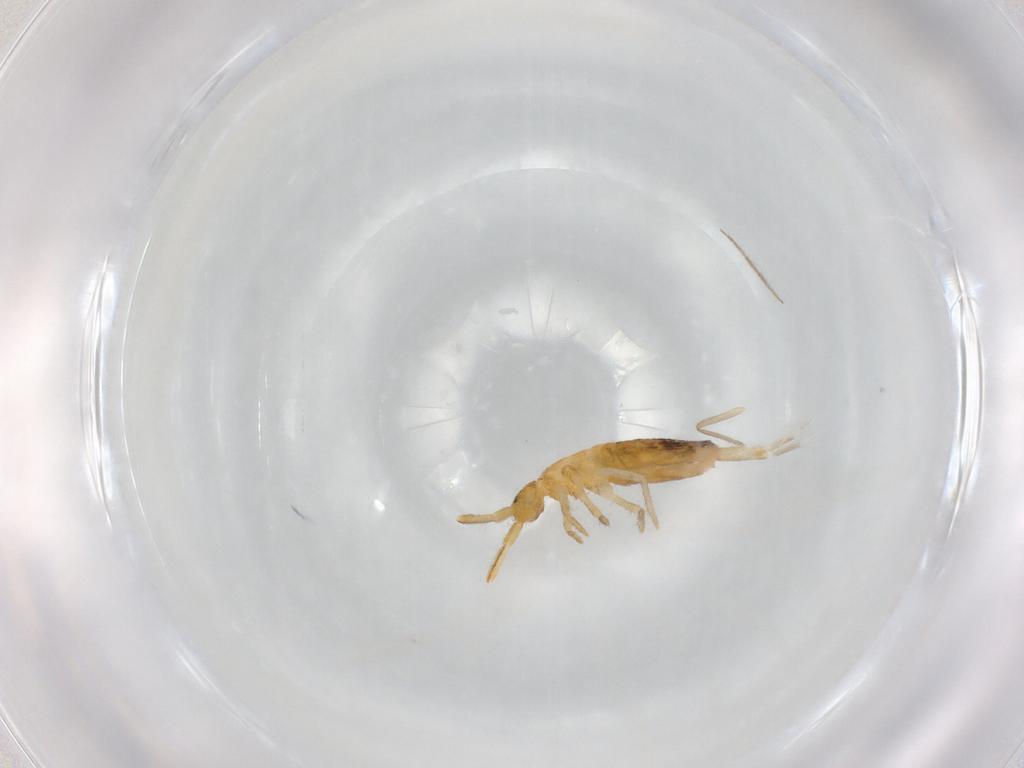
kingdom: Animalia
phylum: Arthropoda
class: Collembola
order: Entomobryomorpha
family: Entomobryidae
